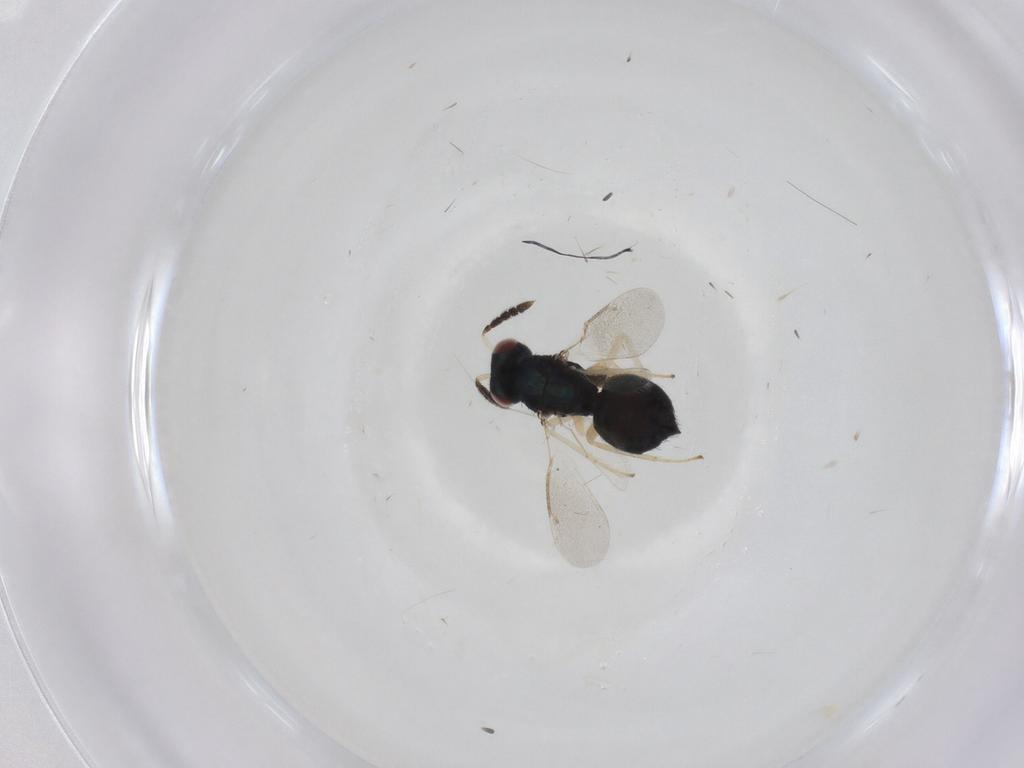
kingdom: Animalia
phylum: Arthropoda
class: Insecta
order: Hymenoptera
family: Eulophidae
